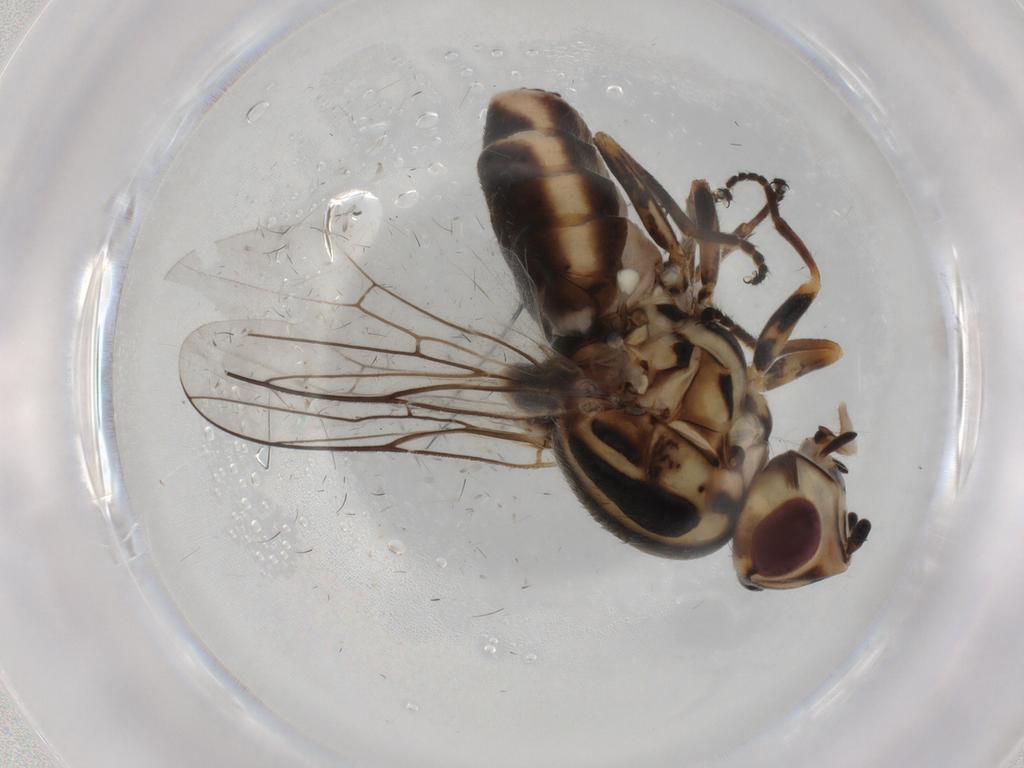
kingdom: Animalia
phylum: Arthropoda
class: Insecta
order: Diptera
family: Chloropidae
